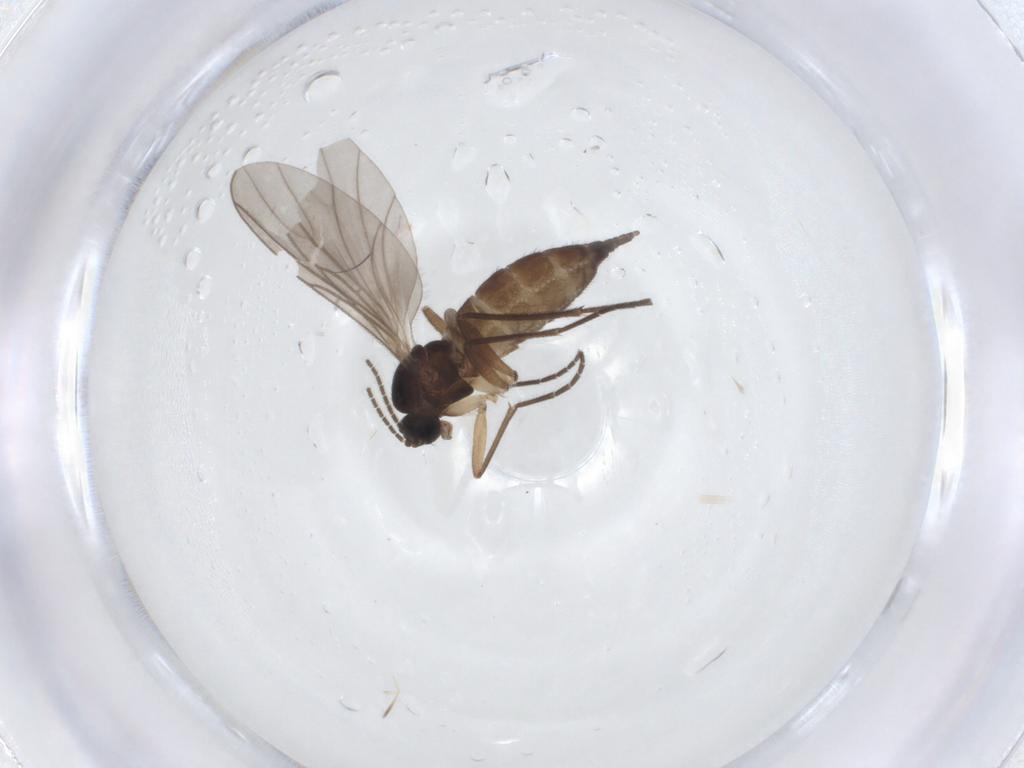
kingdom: Animalia
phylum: Arthropoda
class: Insecta
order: Diptera
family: Sciaridae
